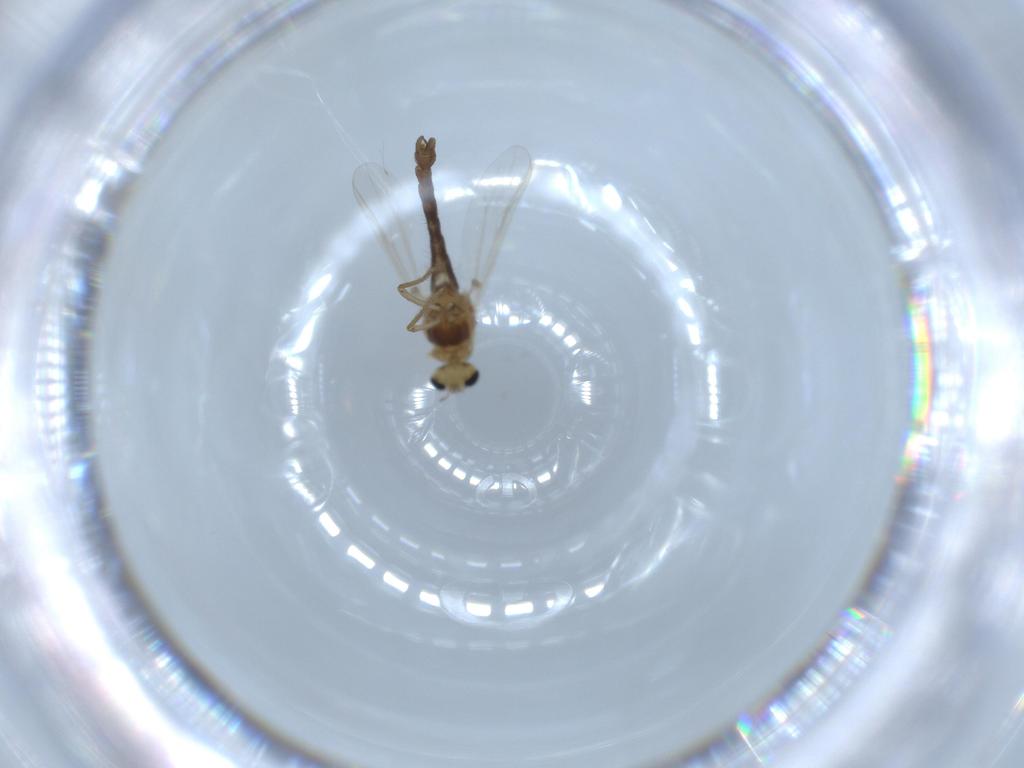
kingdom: Animalia
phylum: Arthropoda
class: Insecta
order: Diptera
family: Chironomidae
